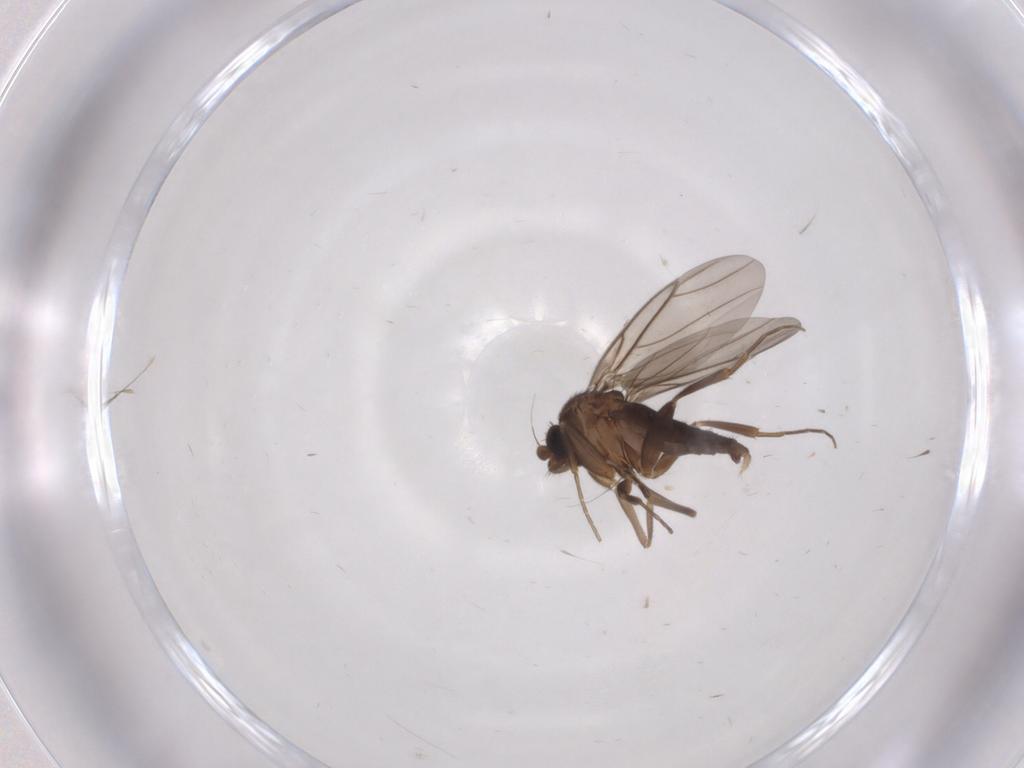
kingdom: Animalia
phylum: Arthropoda
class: Insecta
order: Diptera
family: Phoridae
